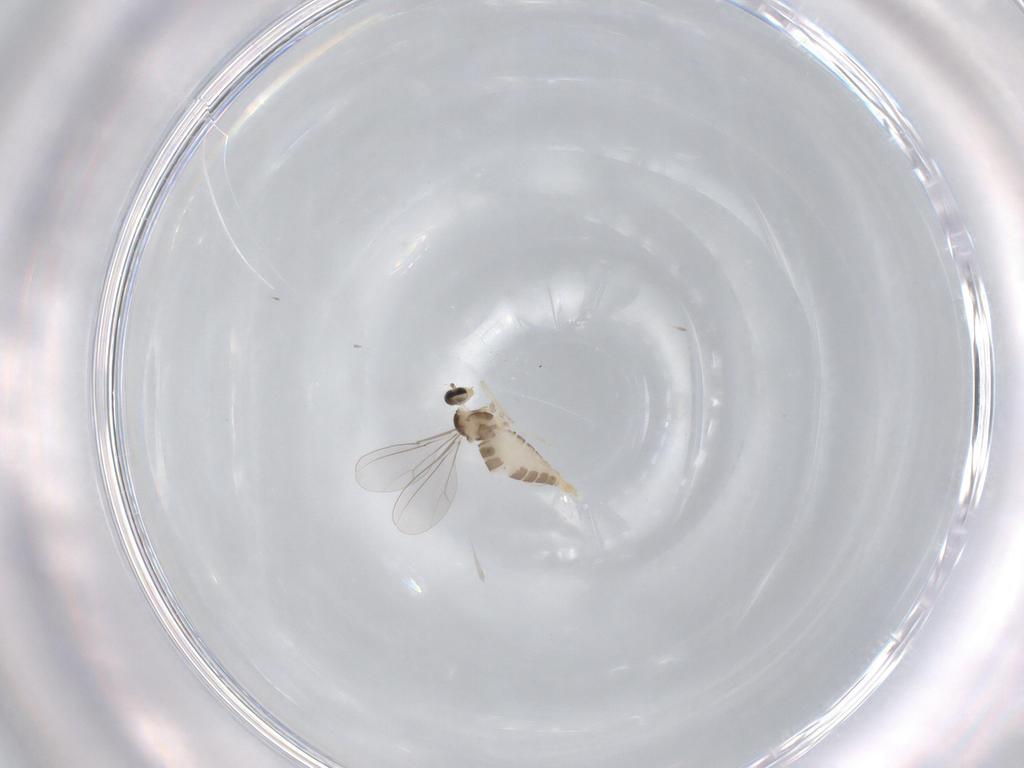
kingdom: Animalia
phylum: Arthropoda
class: Insecta
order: Diptera
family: Cecidomyiidae
